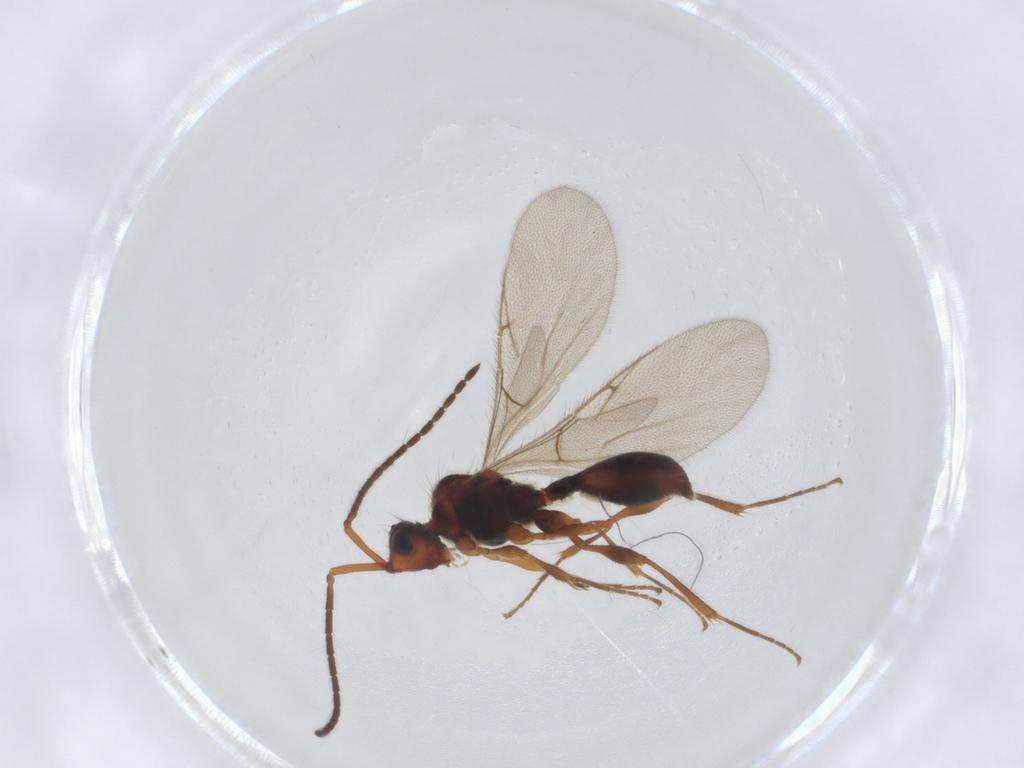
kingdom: Animalia
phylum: Arthropoda
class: Insecta
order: Hymenoptera
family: Diapriidae
